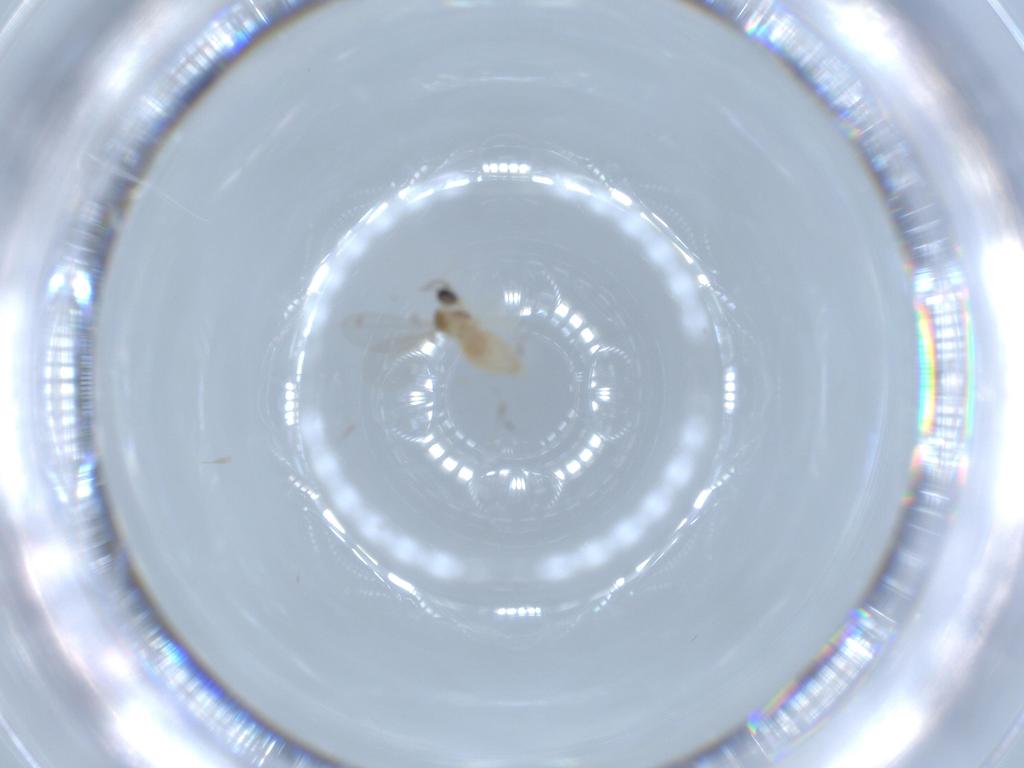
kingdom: Animalia
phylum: Arthropoda
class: Insecta
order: Diptera
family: Cecidomyiidae
